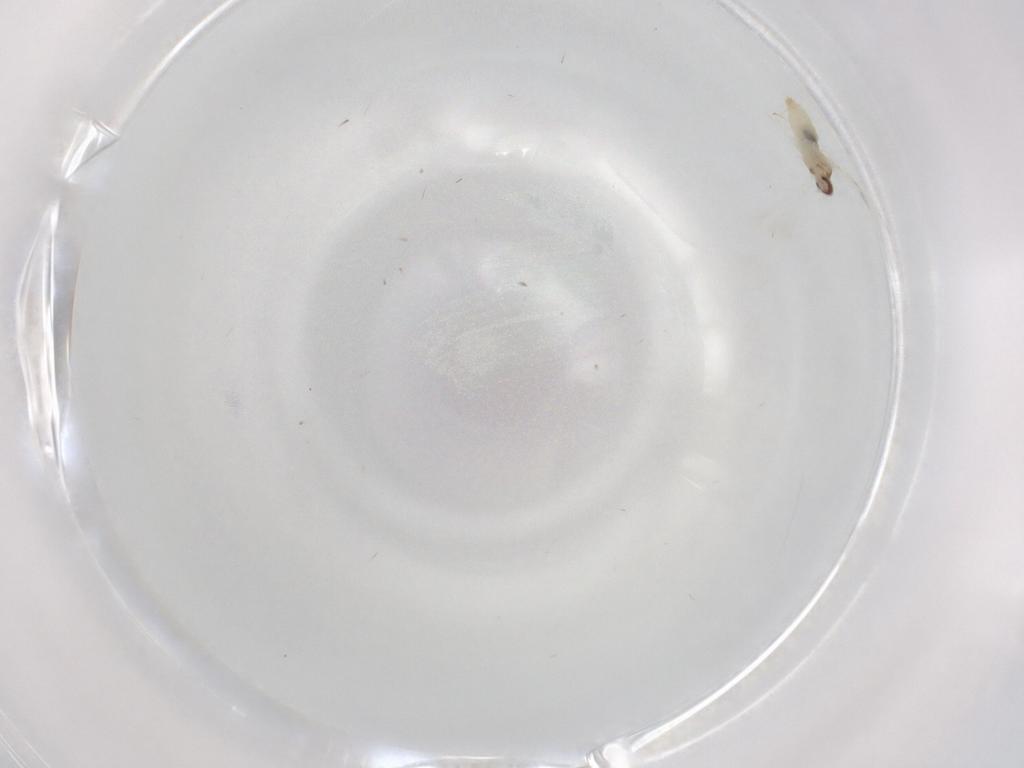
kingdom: Animalia
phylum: Arthropoda
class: Insecta
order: Diptera
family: Cecidomyiidae
